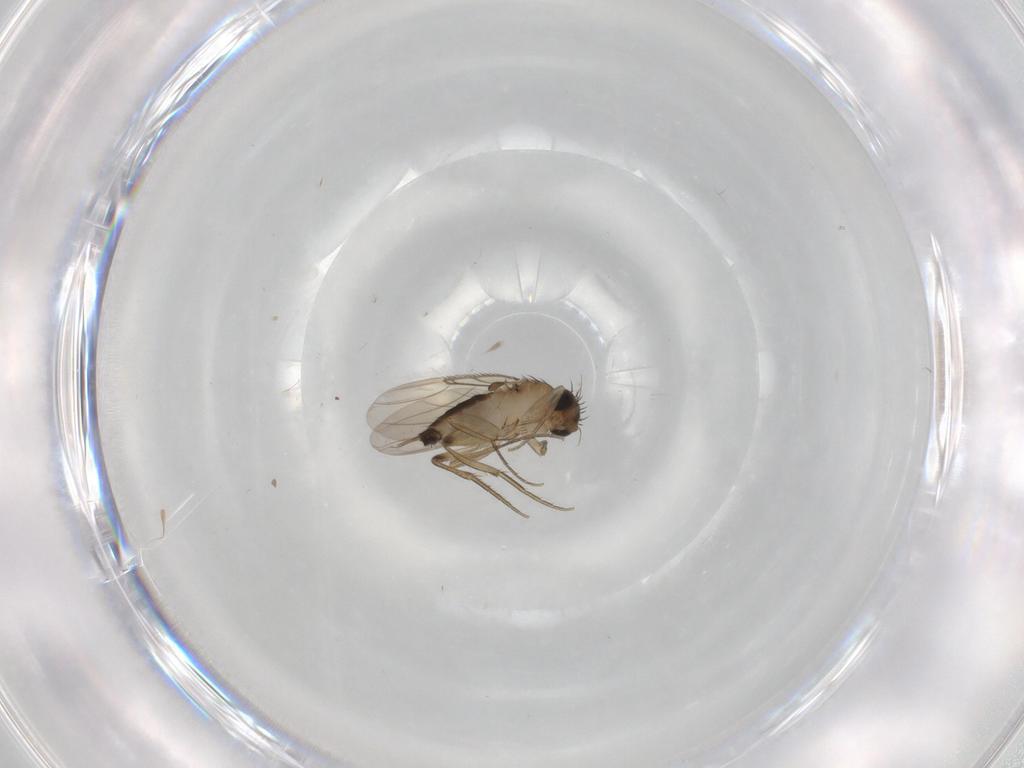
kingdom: Animalia
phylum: Arthropoda
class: Insecta
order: Diptera
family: Phoridae
